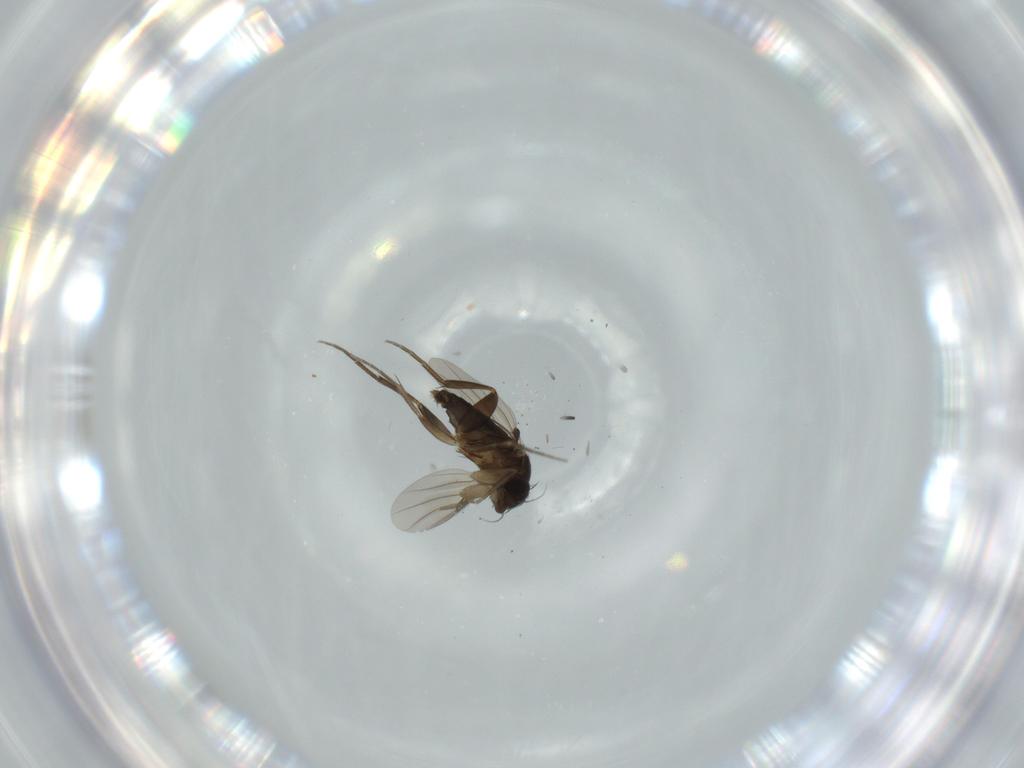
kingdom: Animalia
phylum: Arthropoda
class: Insecta
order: Diptera
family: Phoridae
